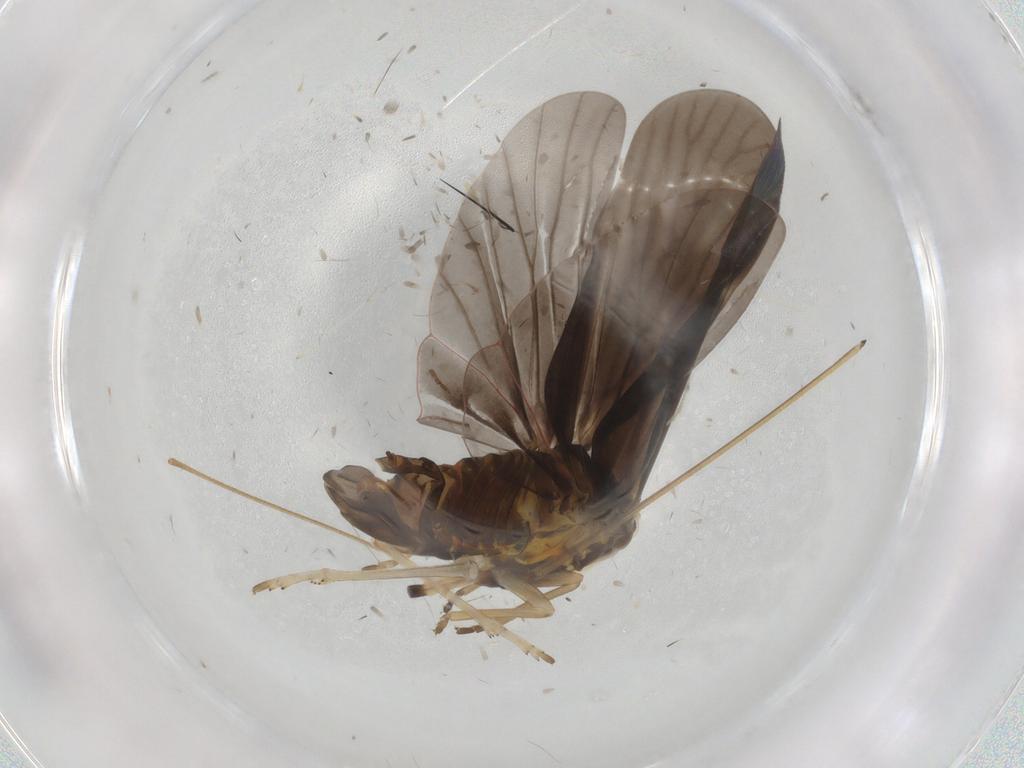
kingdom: Animalia
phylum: Arthropoda
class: Insecta
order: Hemiptera
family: Derbidae
